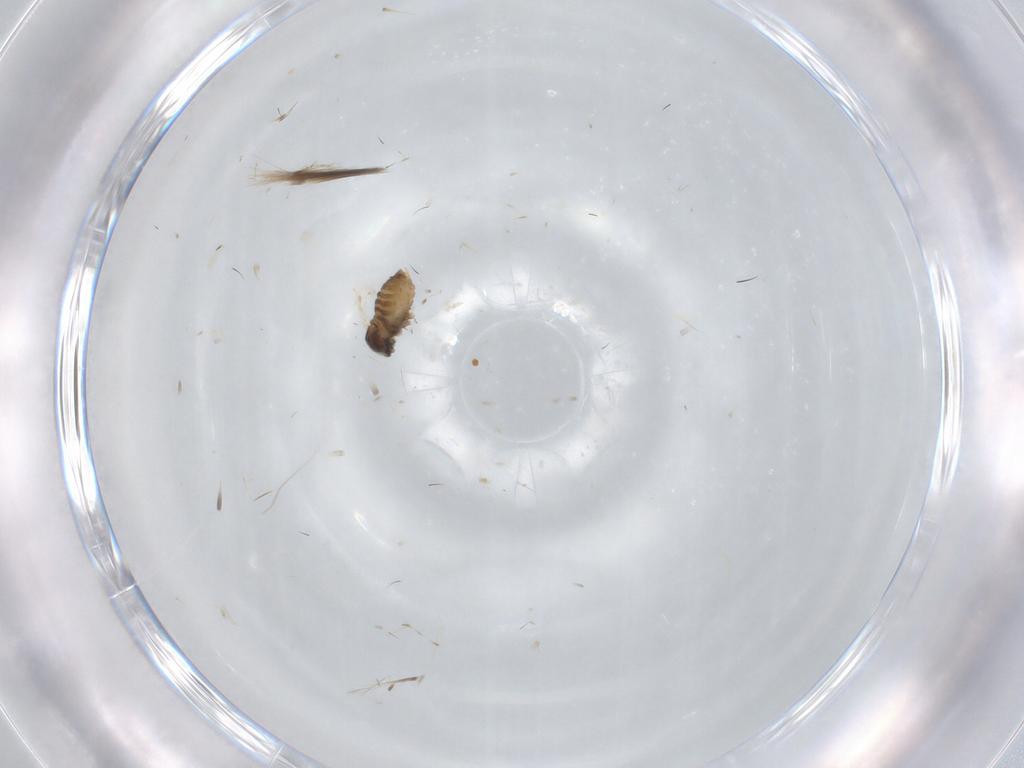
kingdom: Animalia
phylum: Arthropoda
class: Insecta
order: Diptera
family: Cecidomyiidae
